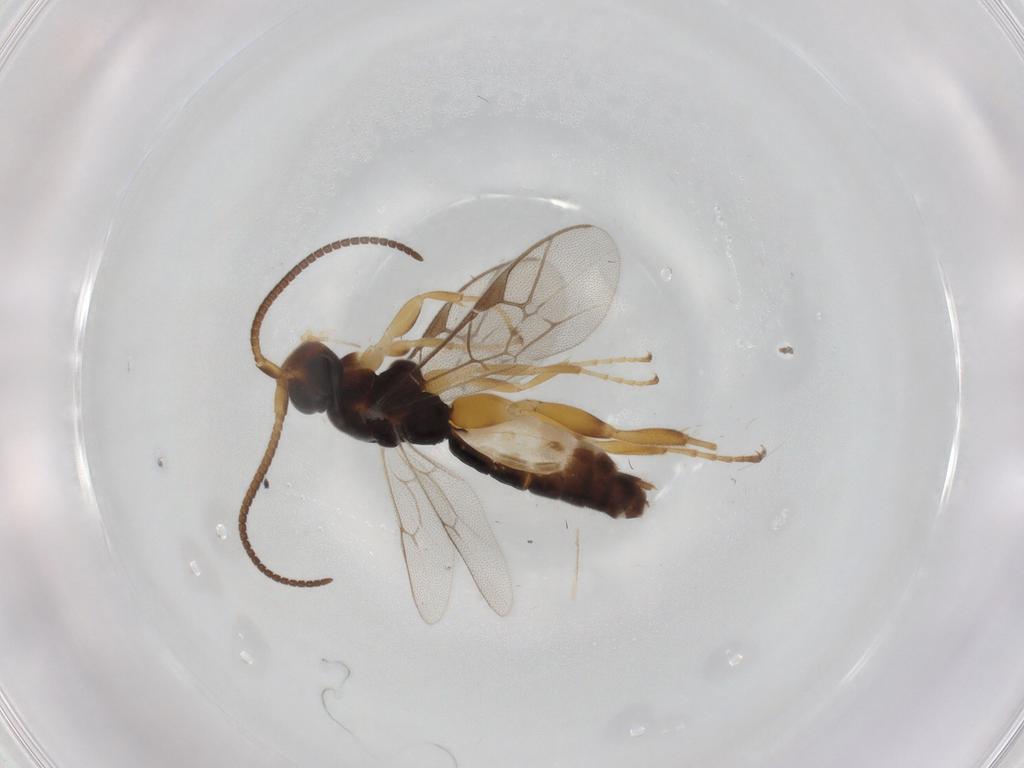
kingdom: Animalia
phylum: Arthropoda
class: Insecta
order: Hymenoptera
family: Ichneumonidae
